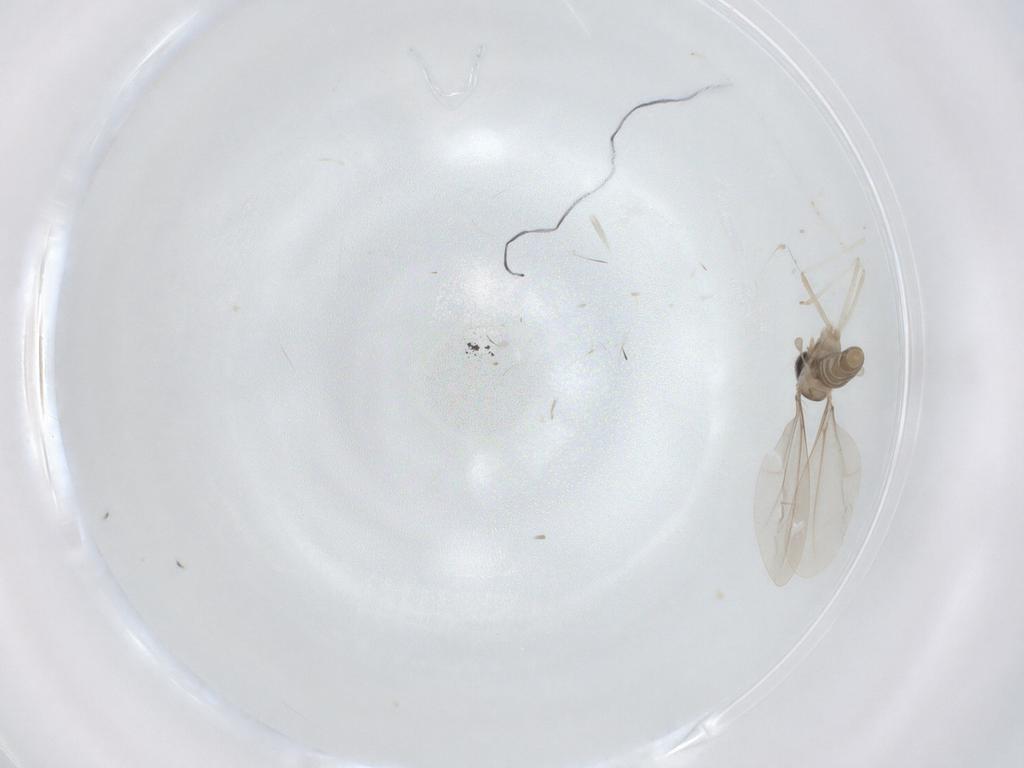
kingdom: Animalia
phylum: Arthropoda
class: Insecta
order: Diptera
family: Cecidomyiidae
